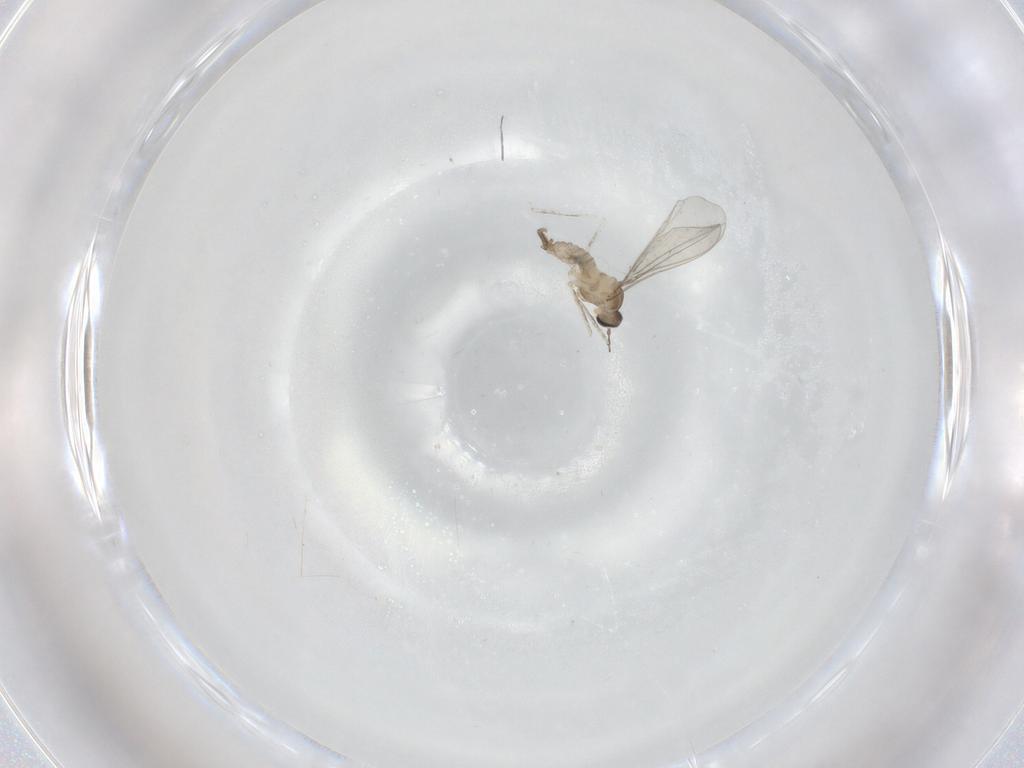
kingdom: Animalia
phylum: Arthropoda
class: Insecta
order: Diptera
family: Cecidomyiidae
